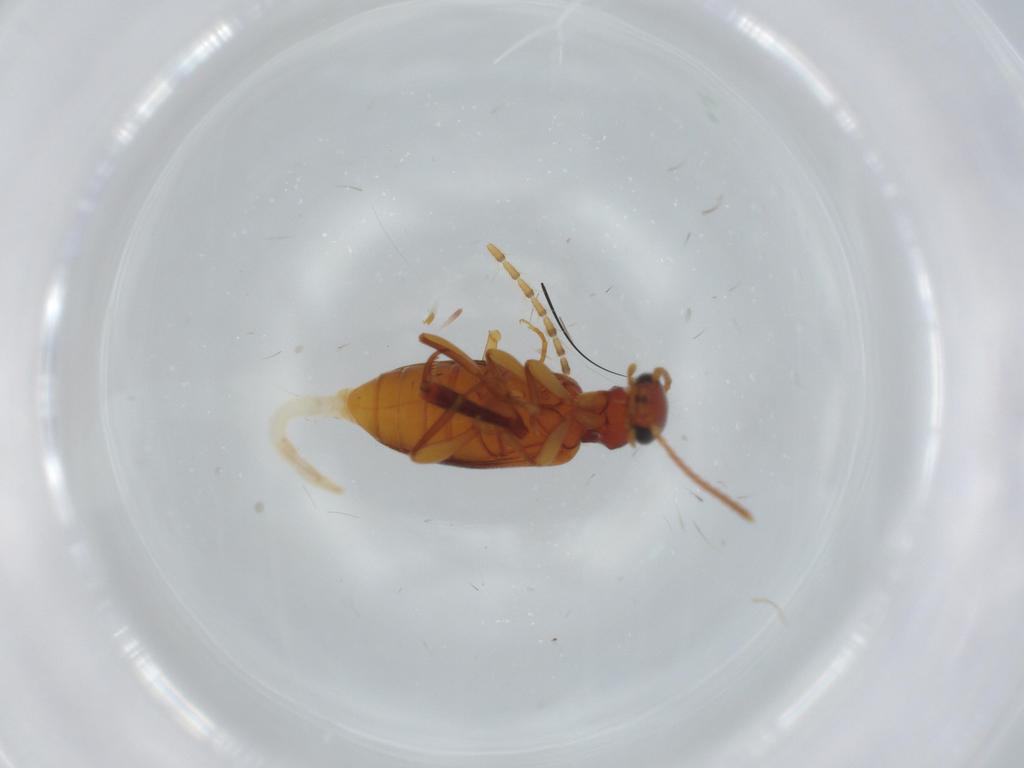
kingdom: Animalia
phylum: Arthropoda
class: Insecta
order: Coleoptera
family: Anthicidae
